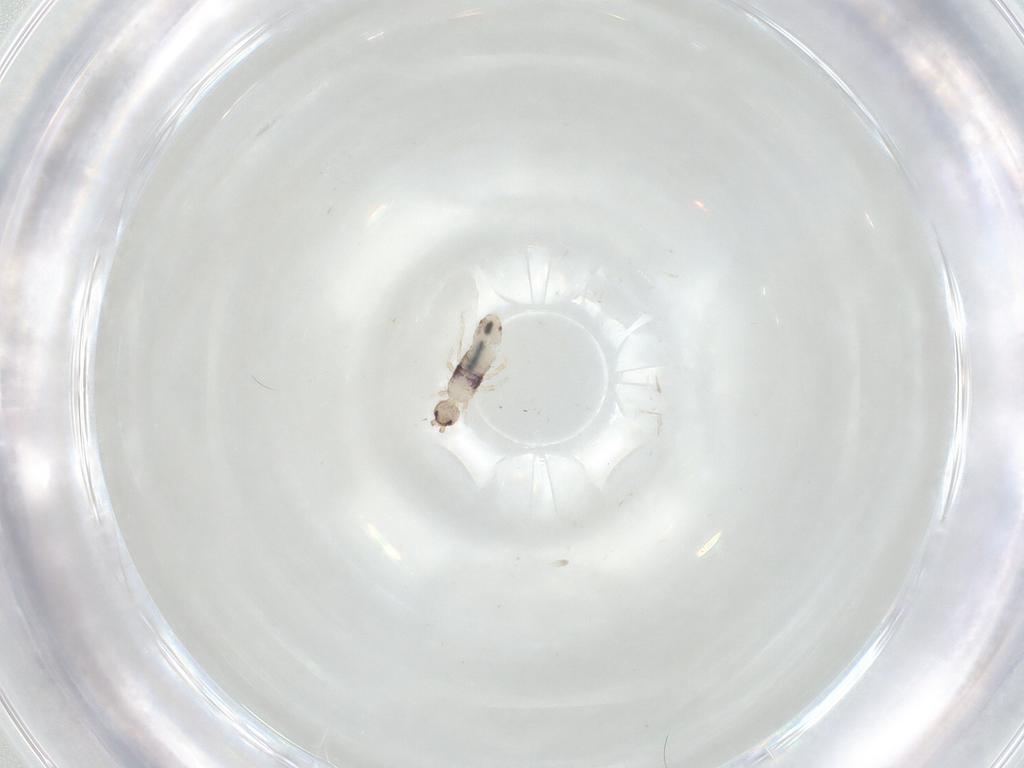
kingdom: Animalia
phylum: Arthropoda
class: Collembola
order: Entomobryomorpha
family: Entomobryidae
